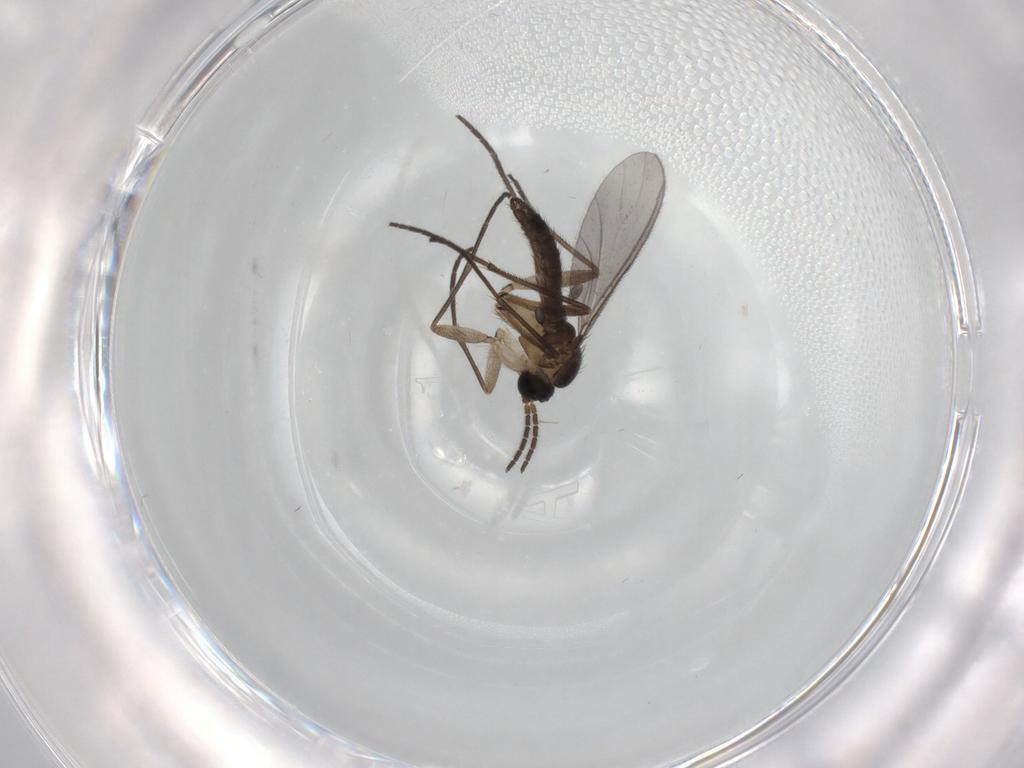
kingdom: Animalia
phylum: Arthropoda
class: Insecta
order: Diptera
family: Sciaridae
